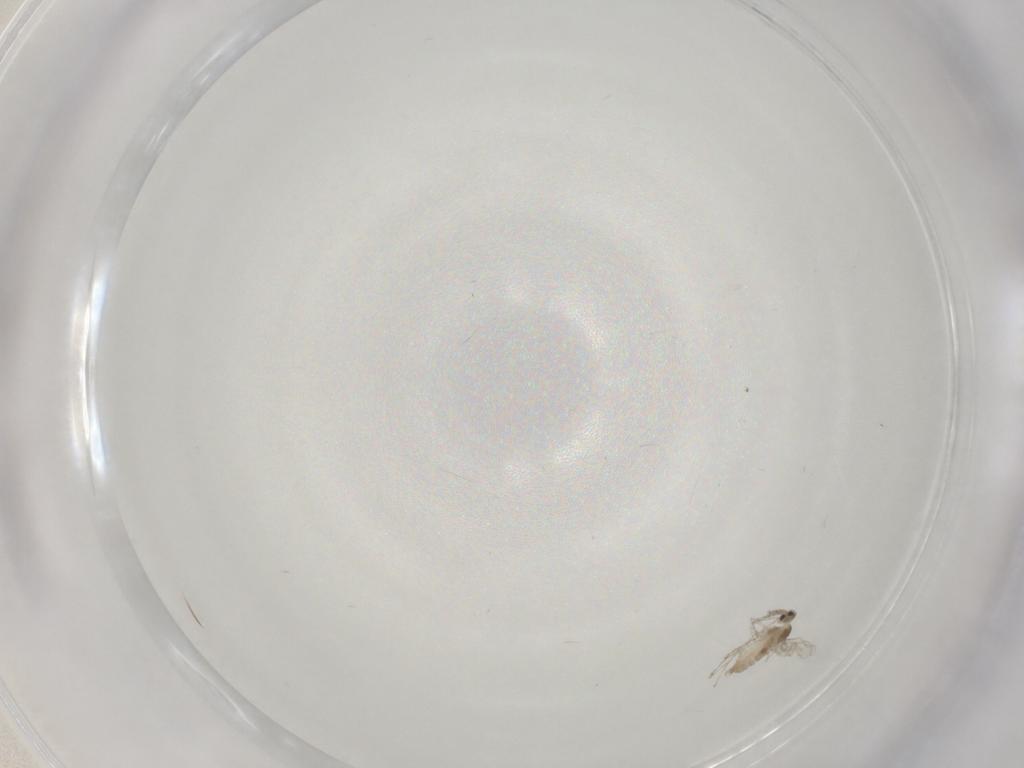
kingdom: Animalia
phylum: Arthropoda
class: Insecta
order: Diptera
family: Cecidomyiidae
